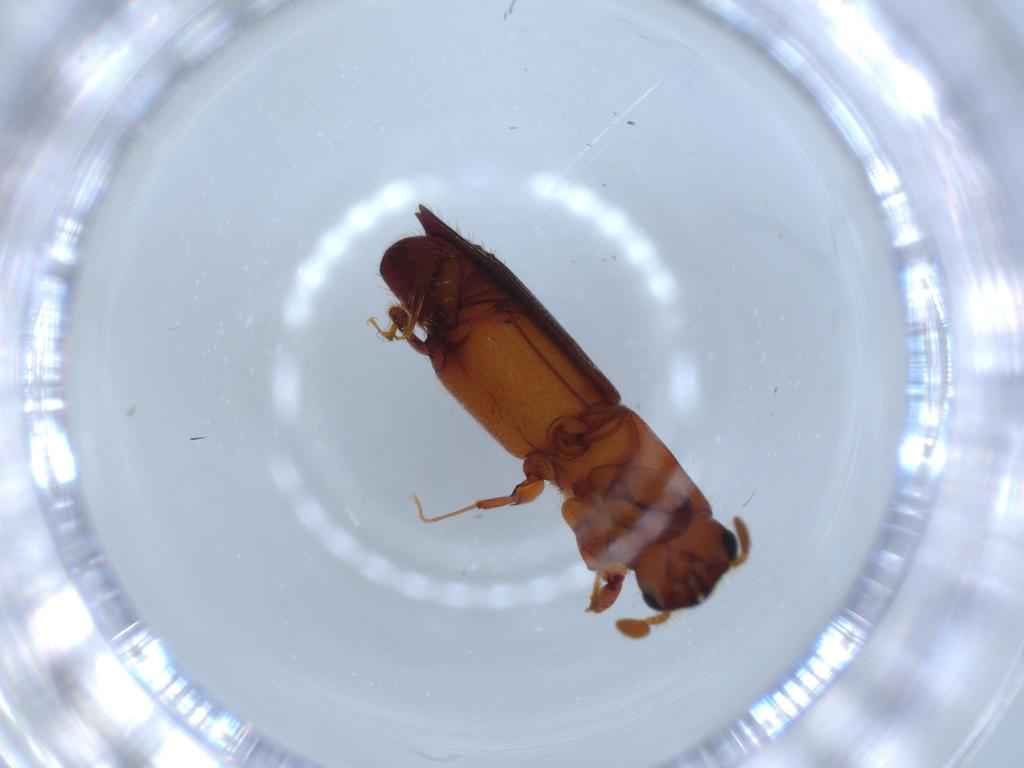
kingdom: Animalia
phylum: Arthropoda
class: Insecta
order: Coleoptera
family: Curculionidae
